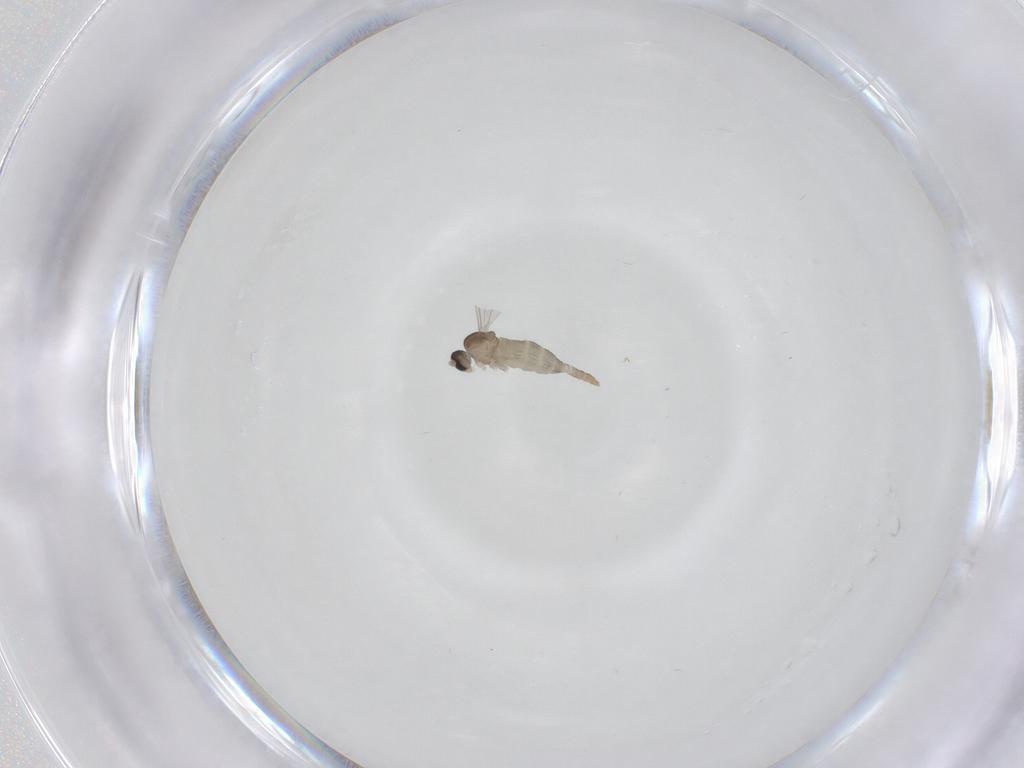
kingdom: Animalia
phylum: Arthropoda
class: Insecta
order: Diptera
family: Cecidomyiidae
